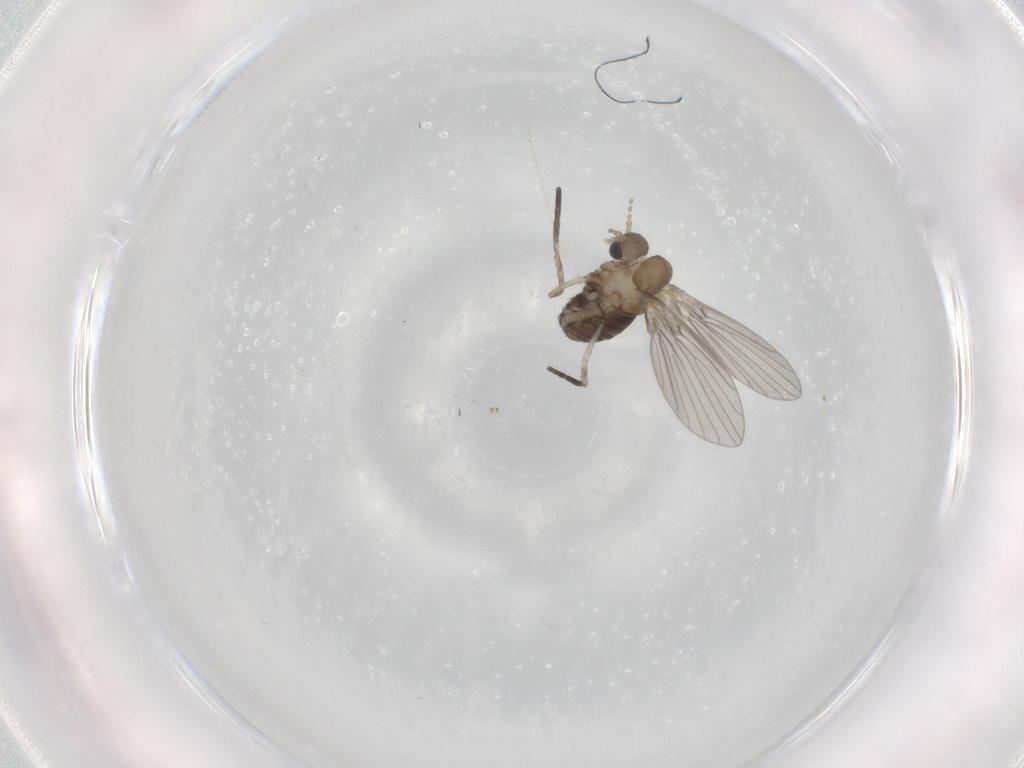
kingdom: Animalia
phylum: Arthropoda
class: Insecta
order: Diptera
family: Psychodidae
